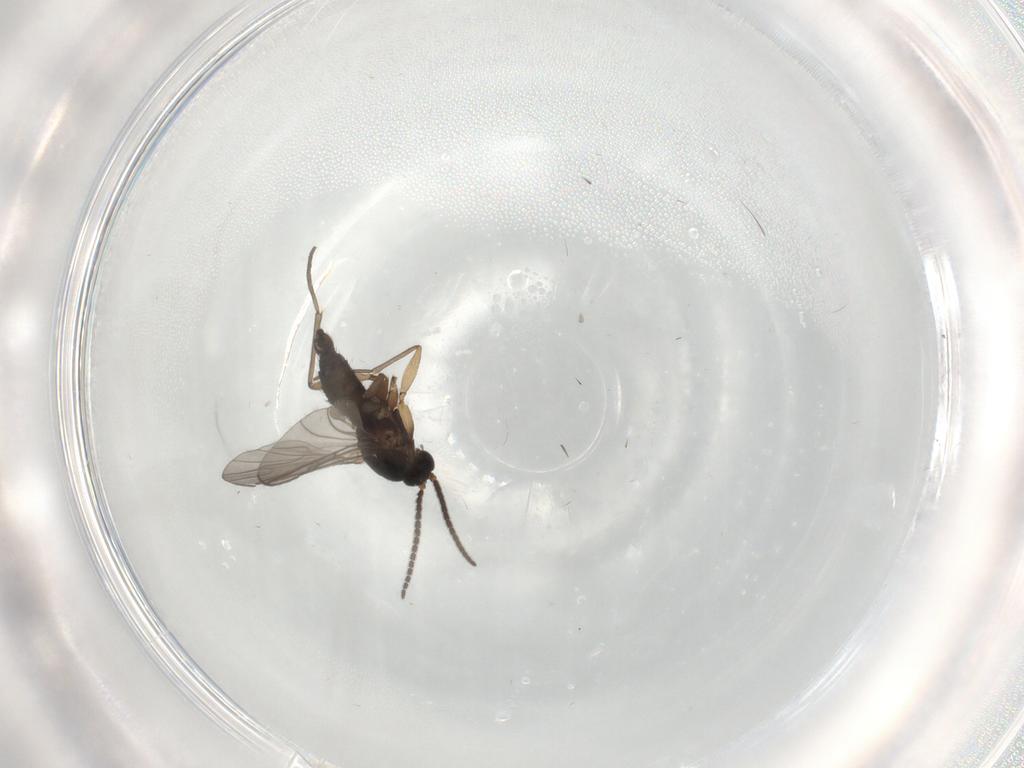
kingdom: Animalia
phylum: Arthropoda
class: Insecta
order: Diptera
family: Sciaridae
